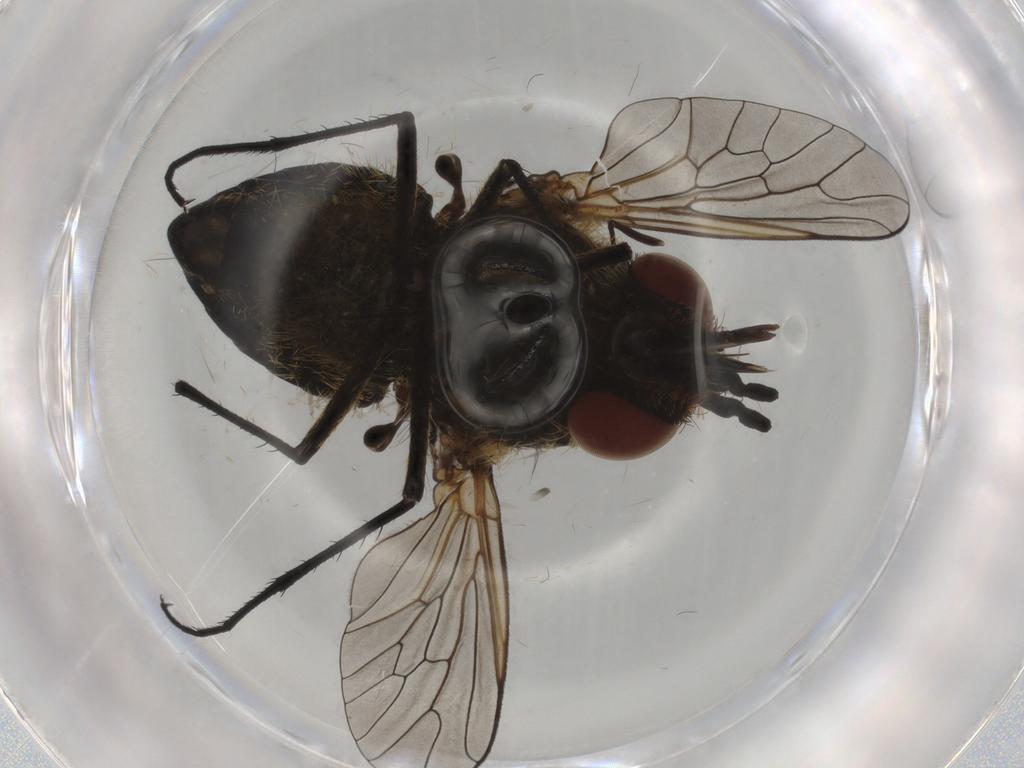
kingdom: Animalia
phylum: Arthropoda
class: Insecta
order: Diptera
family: Bombyliidae
